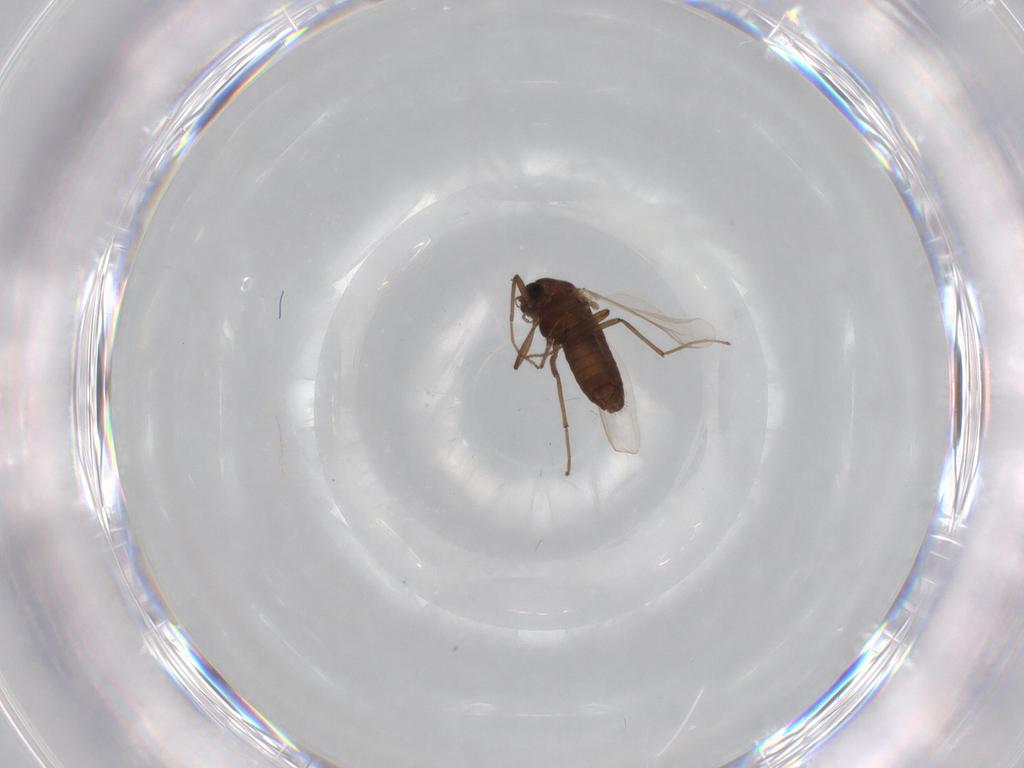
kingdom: Animalia
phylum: Arthropoda
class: Insecta
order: Diptera
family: Chironomidae
